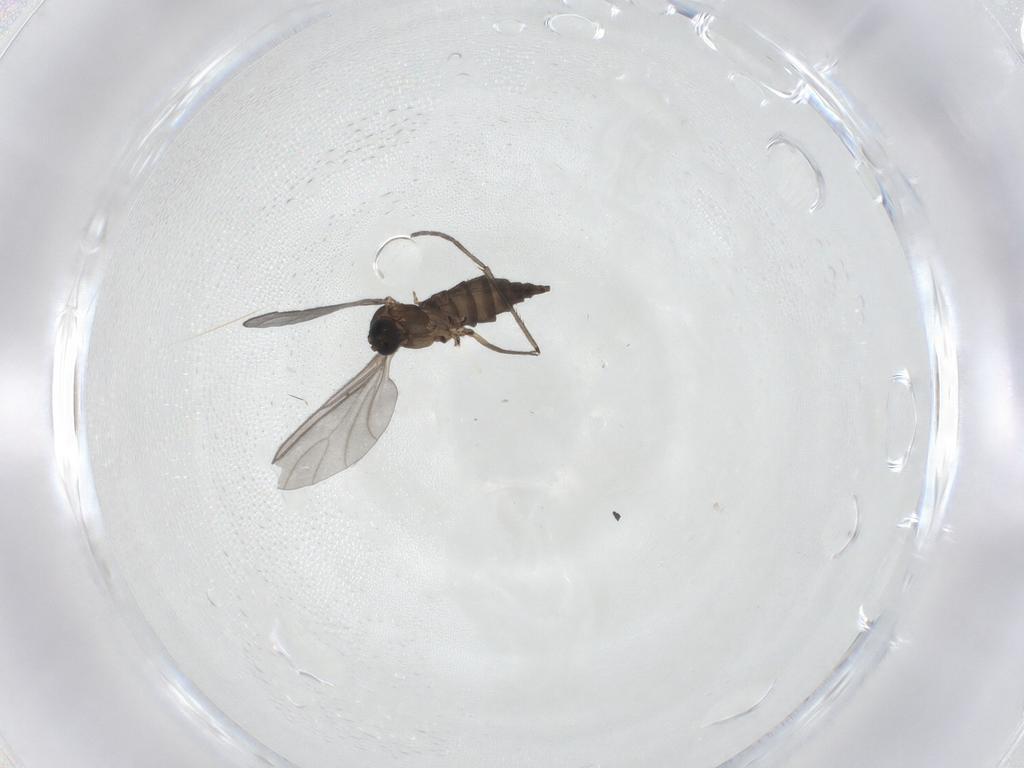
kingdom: Animalia
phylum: Arthropoda
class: Insecta
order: Diptera
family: Sciaridae
